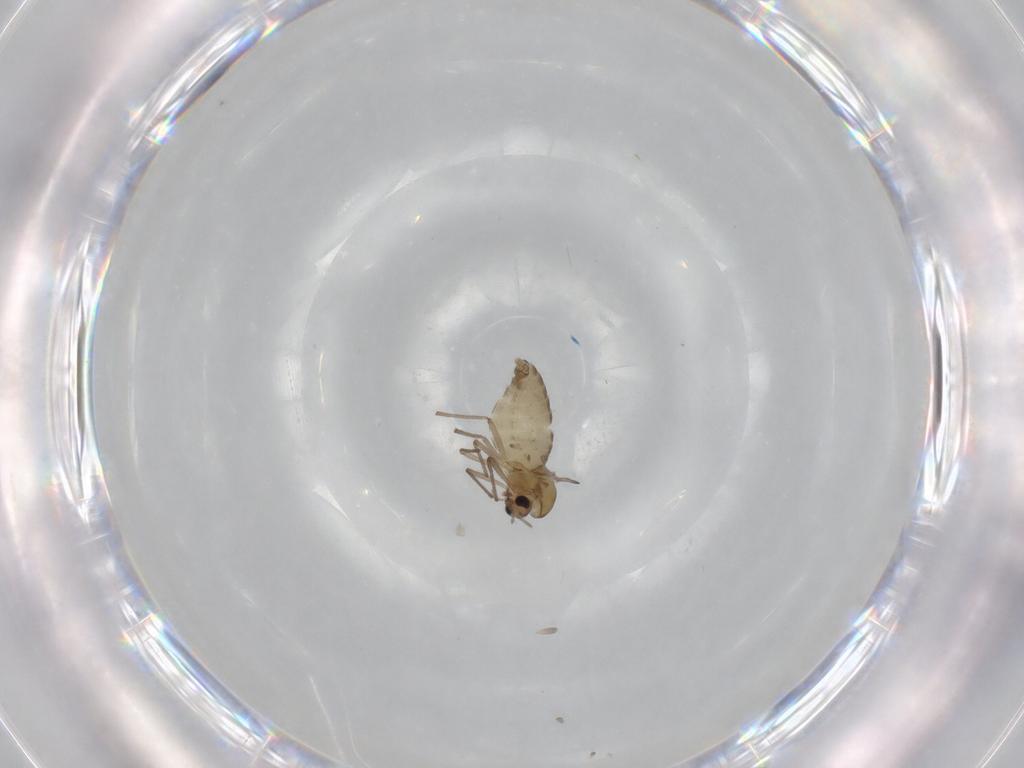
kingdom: Animalia
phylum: Arthropoda
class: Insecta
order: Diptera
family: Chironomidae
